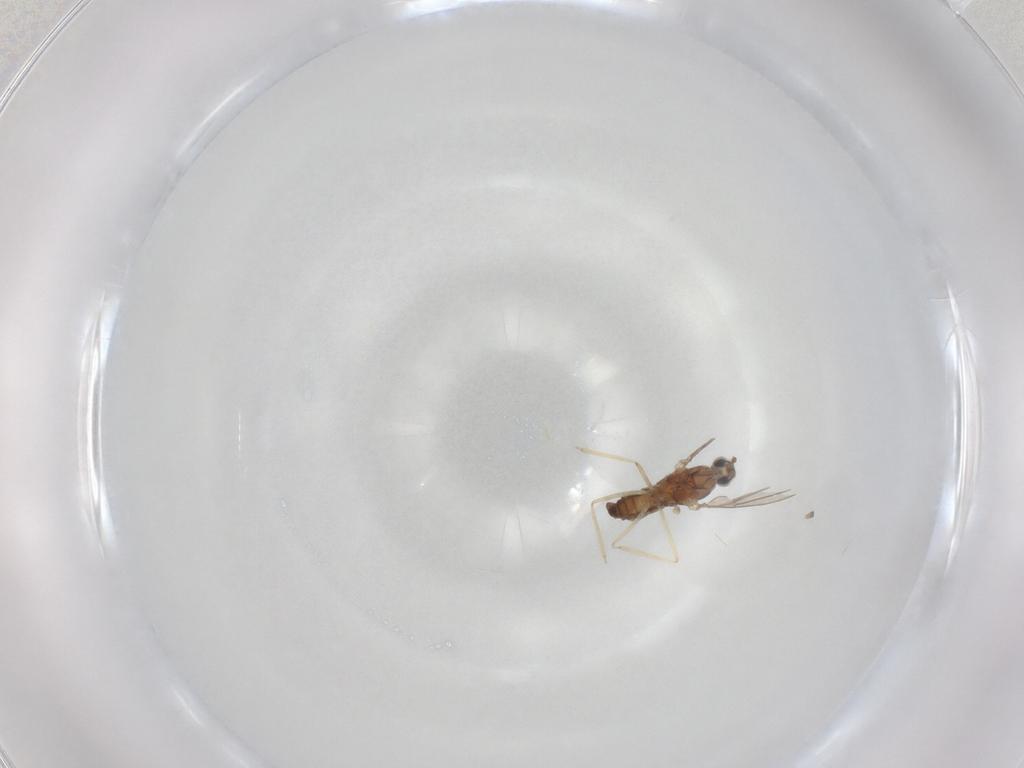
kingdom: Animalia
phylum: Arthropoda
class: Insecta
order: Diptera
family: Cecidomyiidae
